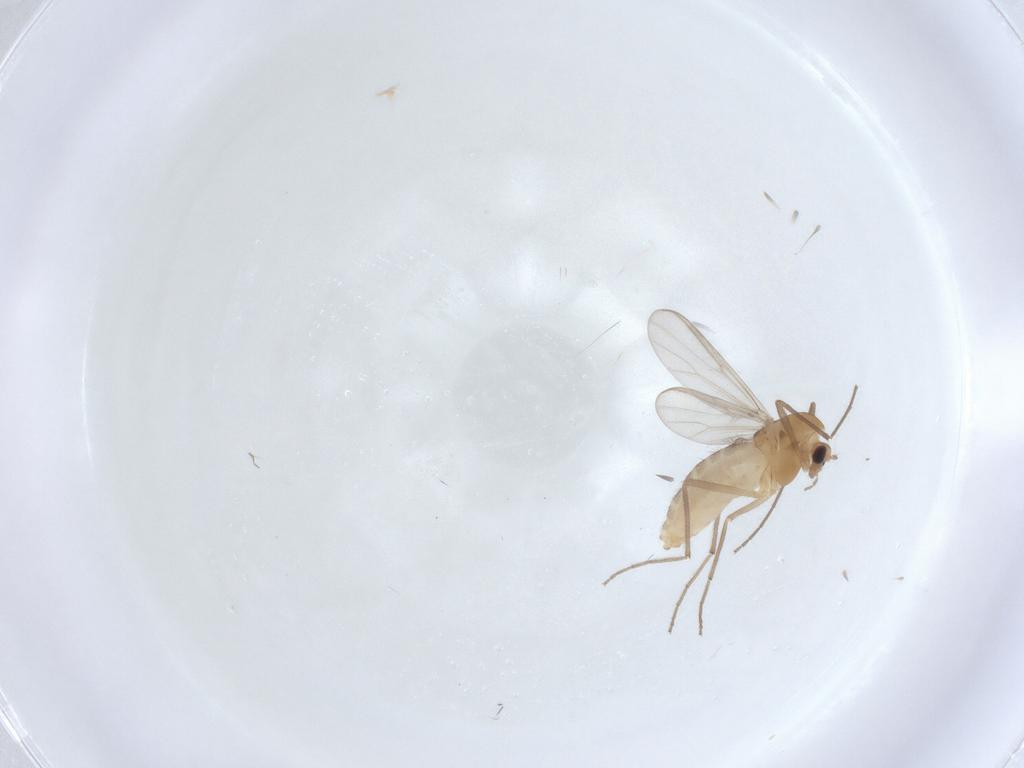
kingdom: Animalia
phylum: Arthropoda
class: Insecta
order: Diptera
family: Chironomidae
